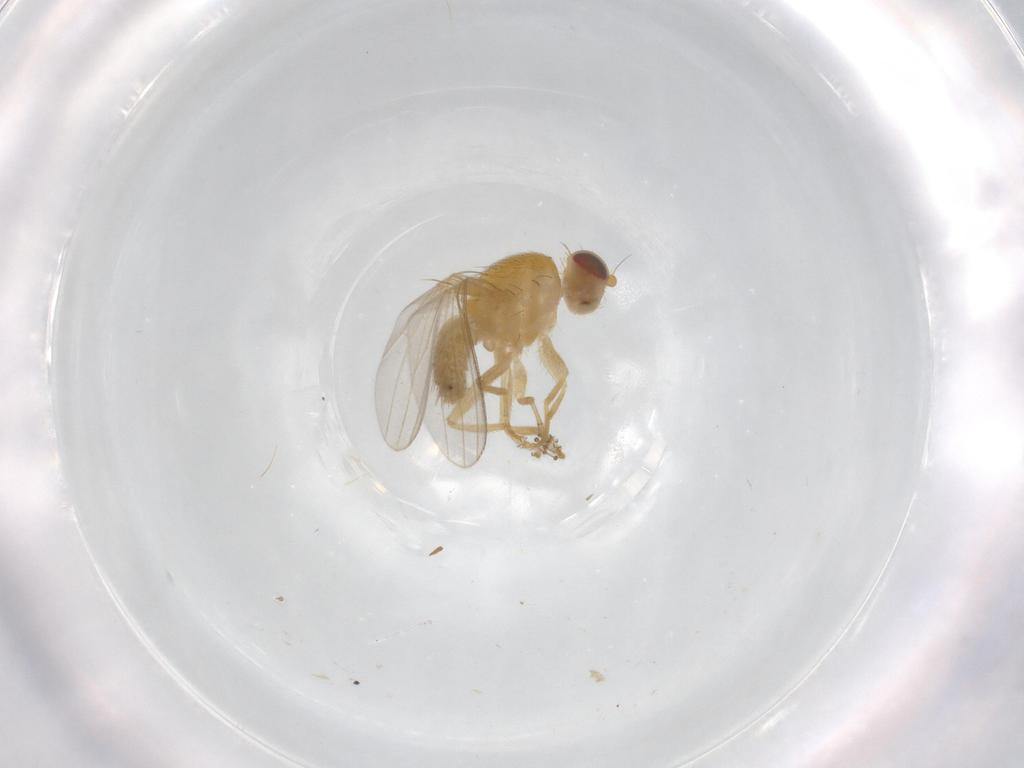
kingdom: Animalia
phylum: Arthropoda
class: Insecta
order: Diptera
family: Chyromyidae
